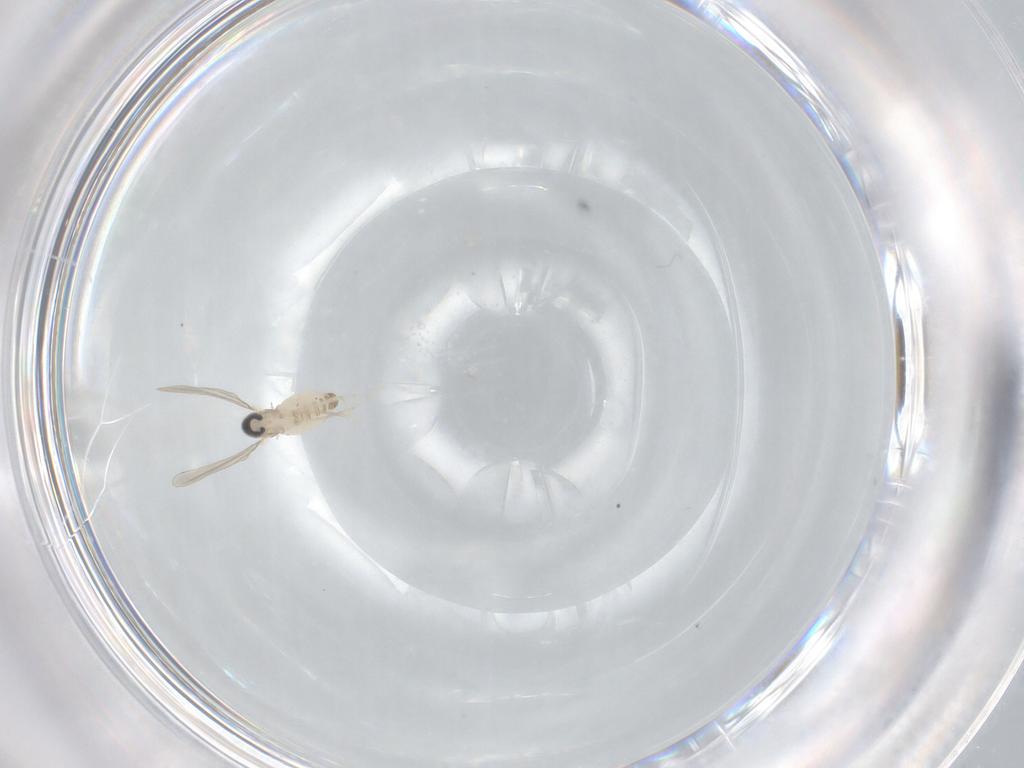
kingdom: Animalia
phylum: Arthropoda
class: Insecta
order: Diptera
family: Cecidomyiidae
